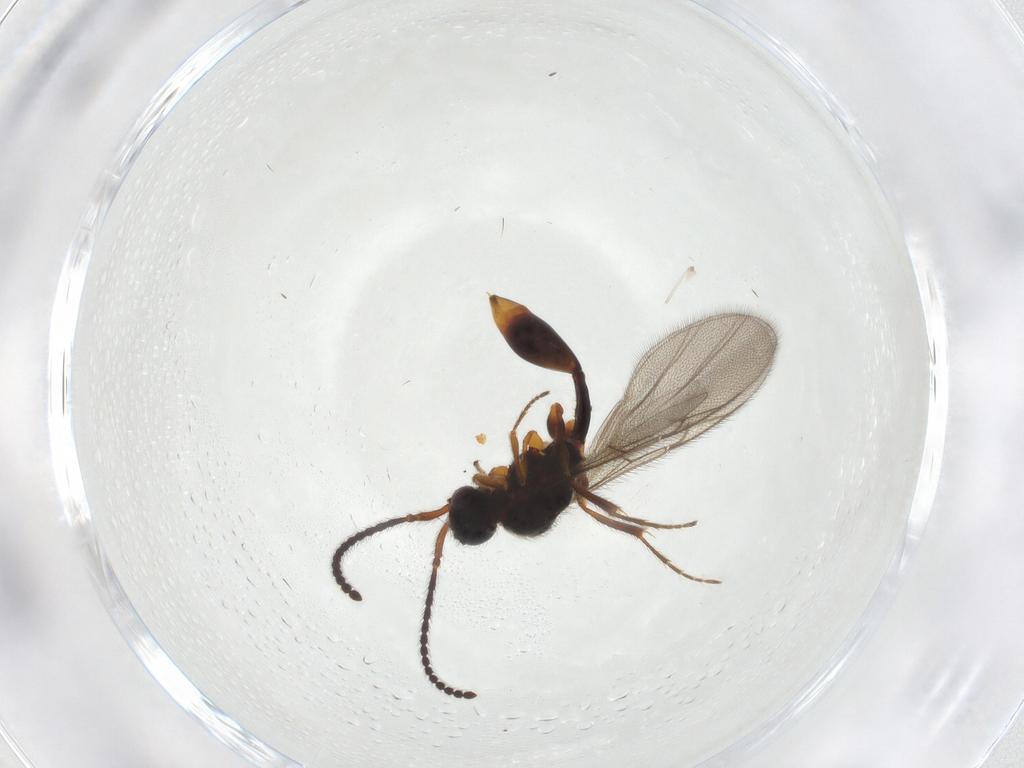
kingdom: Animalia
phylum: Arthropoda
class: Insecta
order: Hymenoptera
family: Diapriidae
